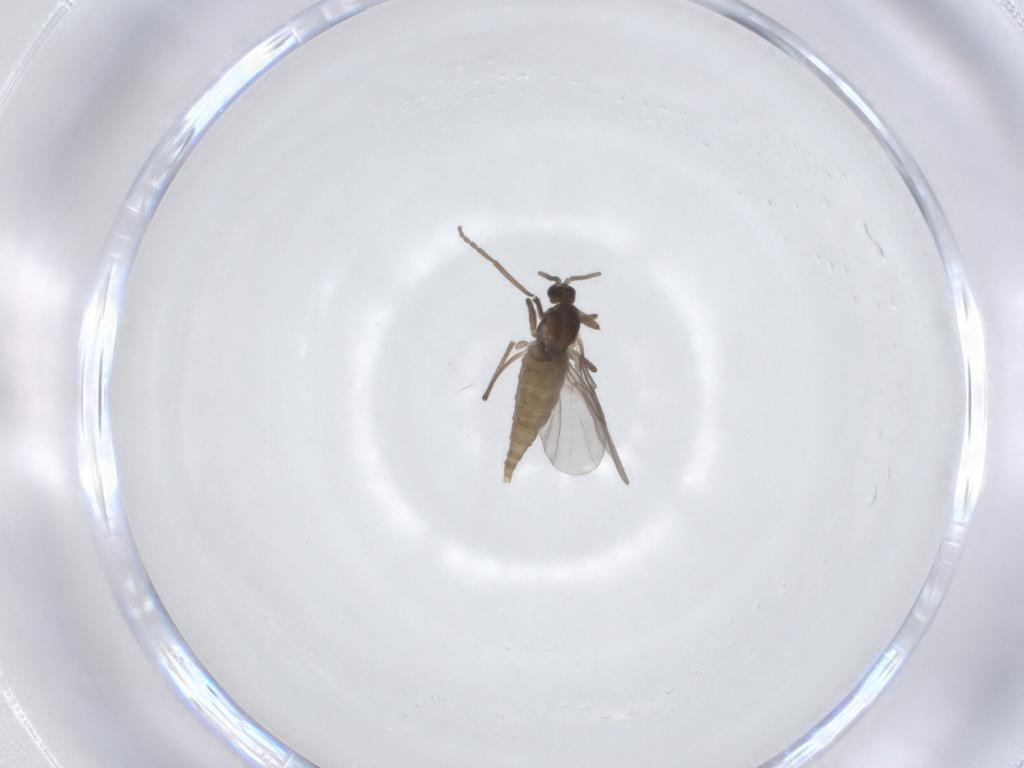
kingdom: Animalia
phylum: Arthropoda
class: Insecta
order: Diptera
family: Cecidomyiidae
